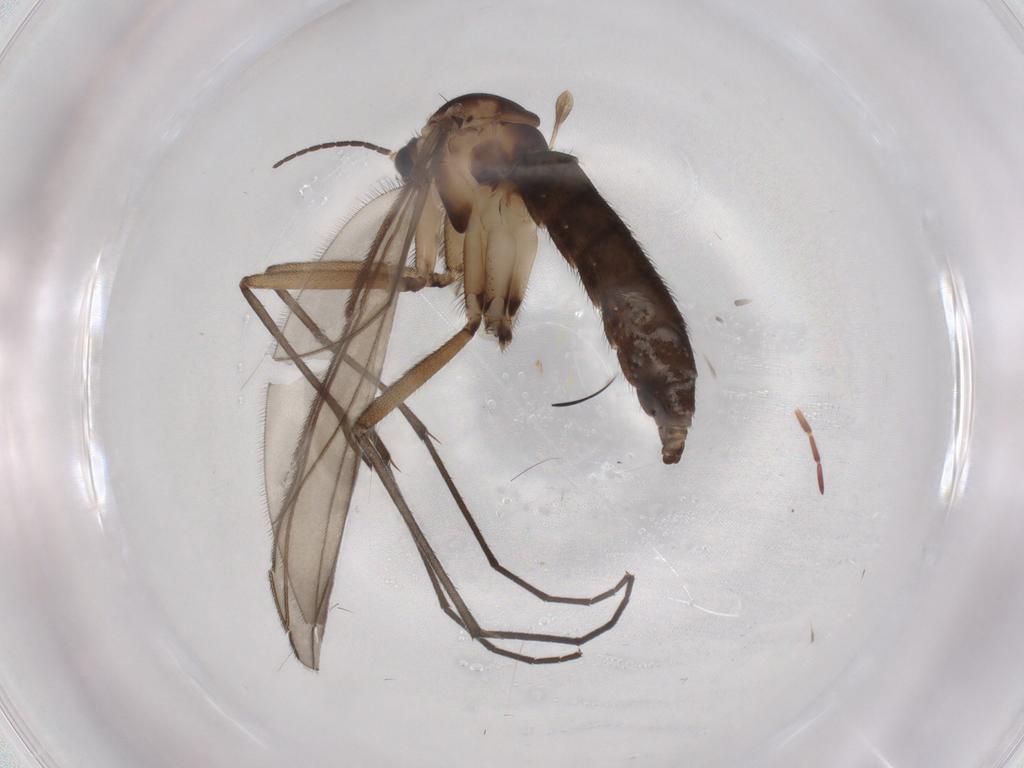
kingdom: Animalia
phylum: Arthropoda
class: Insecta
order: Diptera
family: Sciaridae
